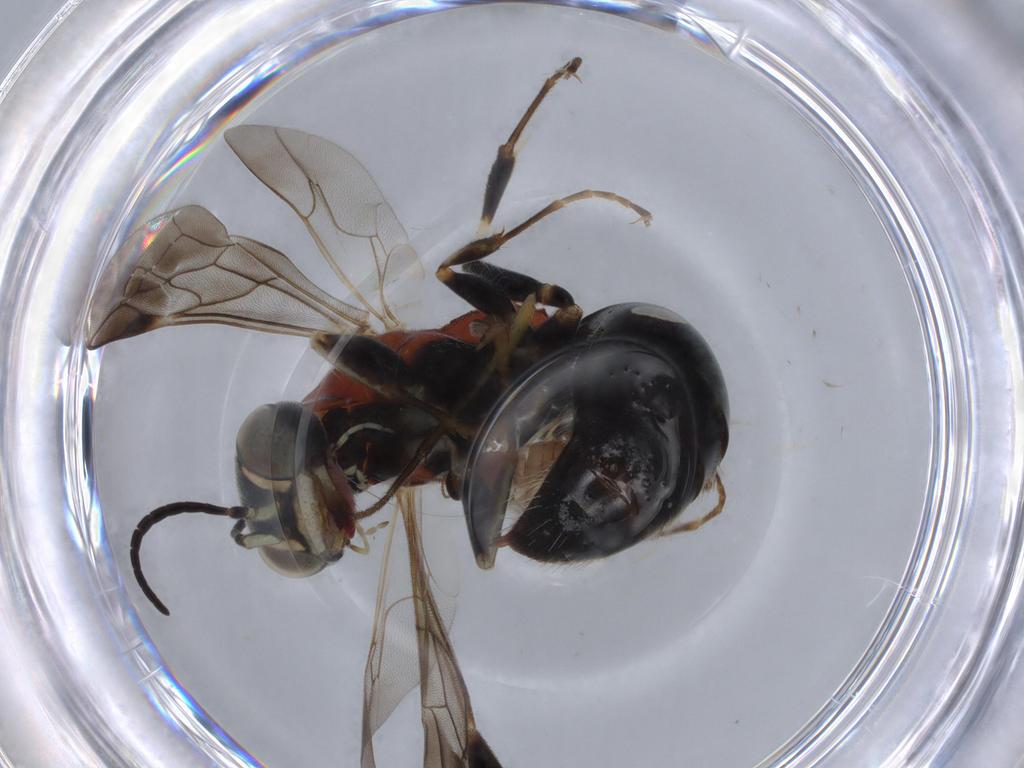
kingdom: Animalia
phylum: Arthropoda
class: Insecta
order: Hymenoptera
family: Bembicidae
